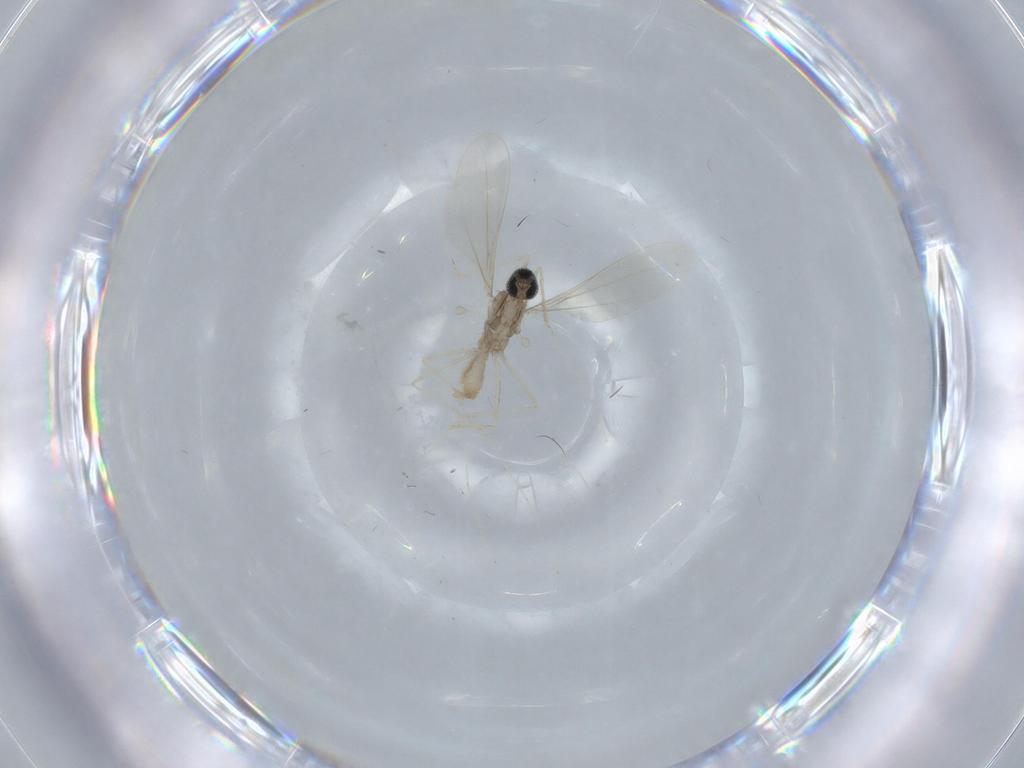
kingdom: Animalia
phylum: Arthropoda
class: Insecta
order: Diptera
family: Cecidomyiidae
